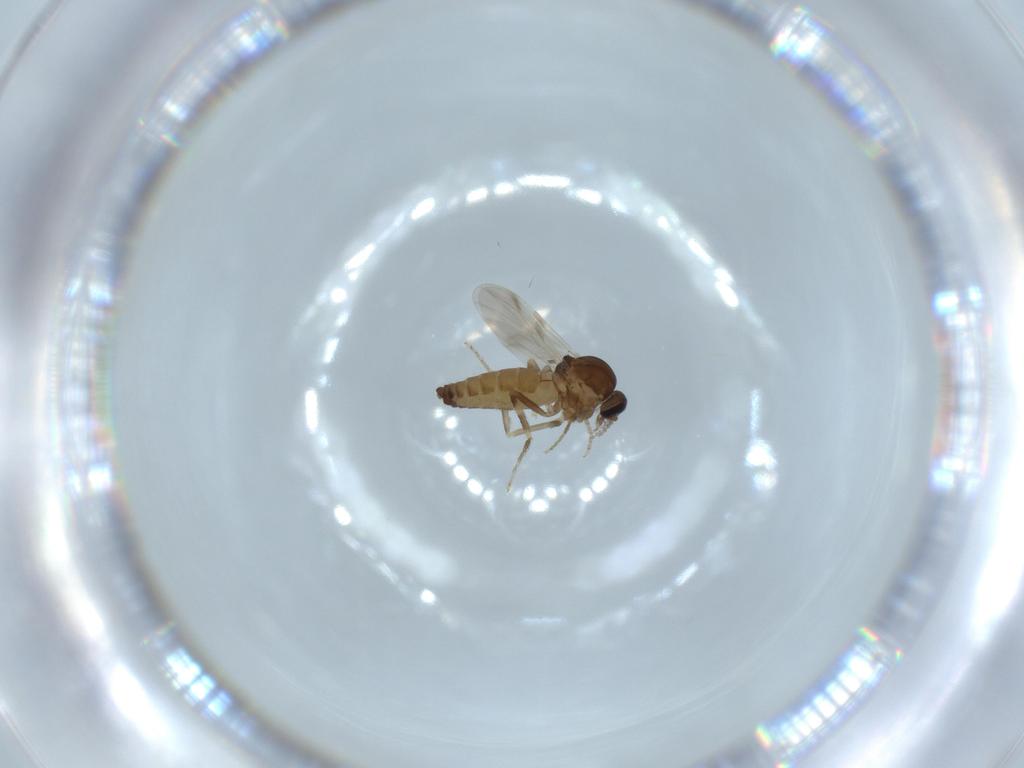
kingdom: Animalia
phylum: Arthropoda
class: Insecta
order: Diptera
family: Ceratopogonidae
